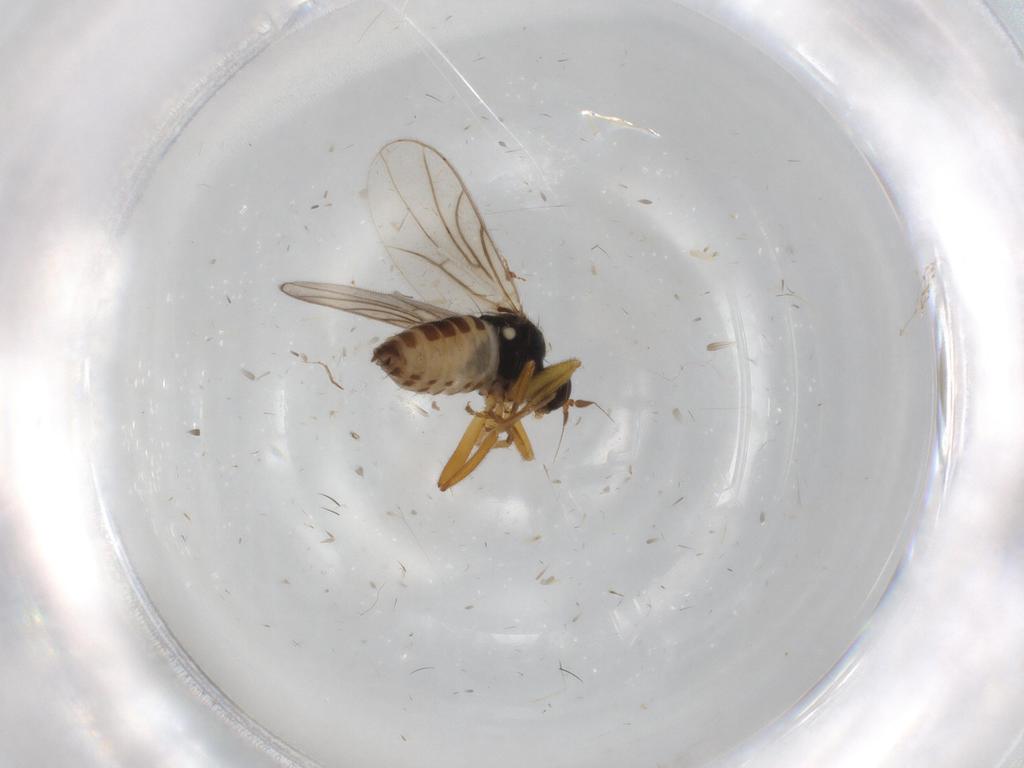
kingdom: Animalia
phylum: Arthropoda
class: Insecta
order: Diptera
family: Hybotidae
